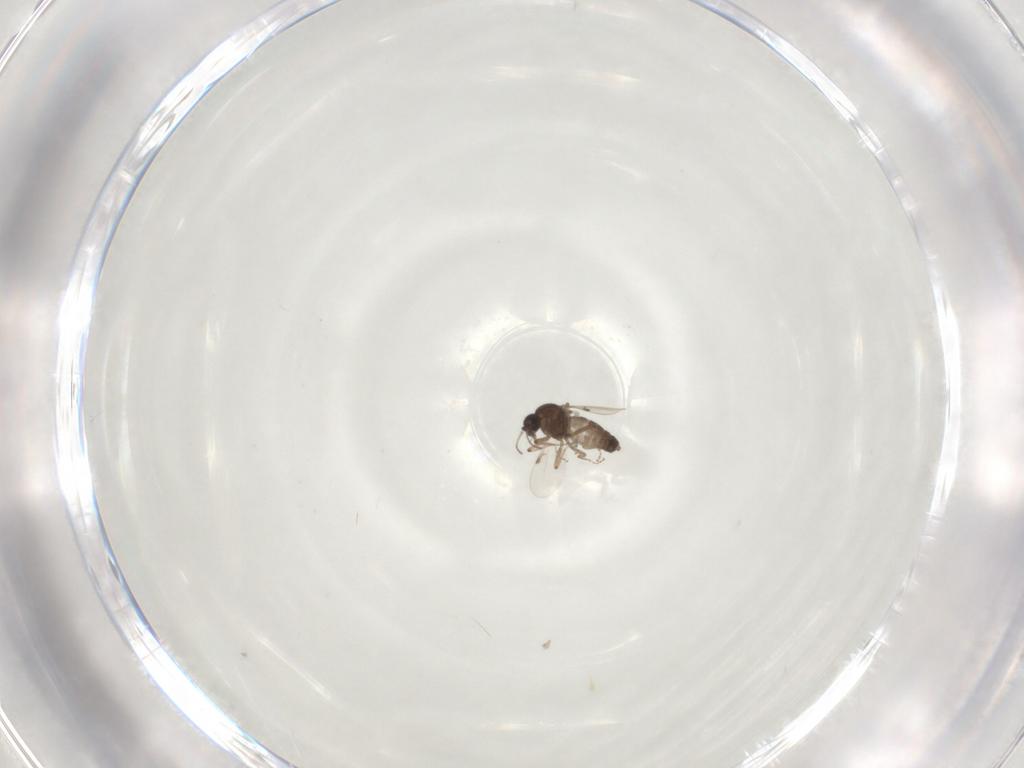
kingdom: Animalia
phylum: Arthropoda
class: Insecta
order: Diptera
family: Ceratopogonidae
